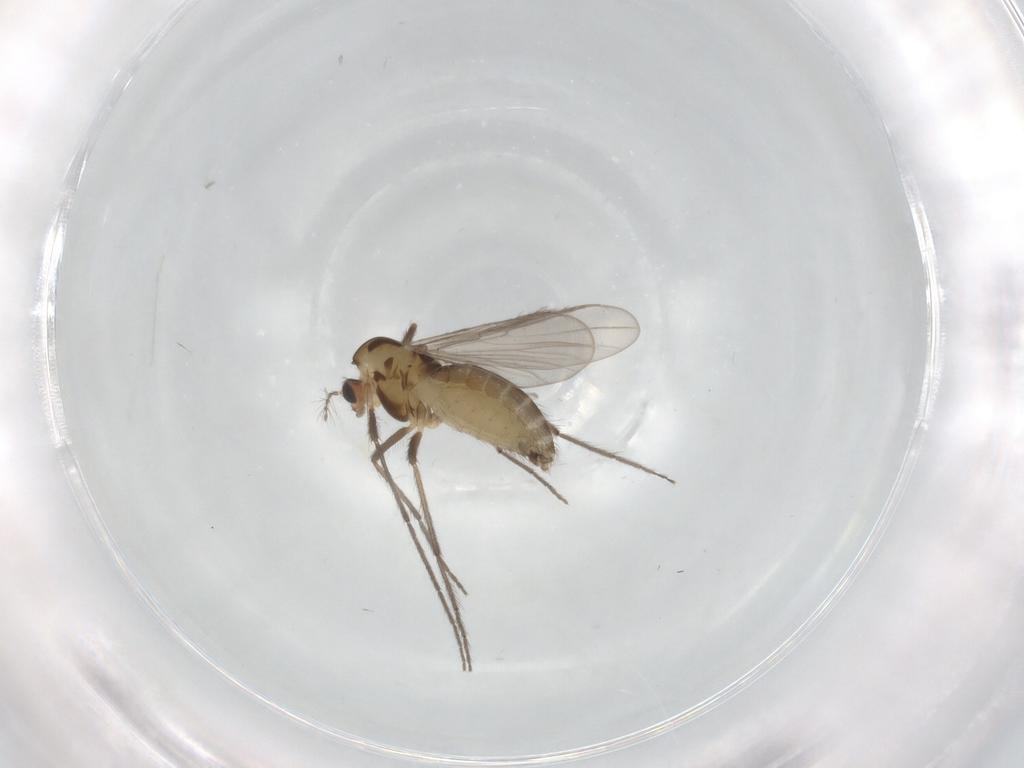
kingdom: Animalia
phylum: Arthropoda
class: Insecta
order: Diptera
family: Chironomidae
